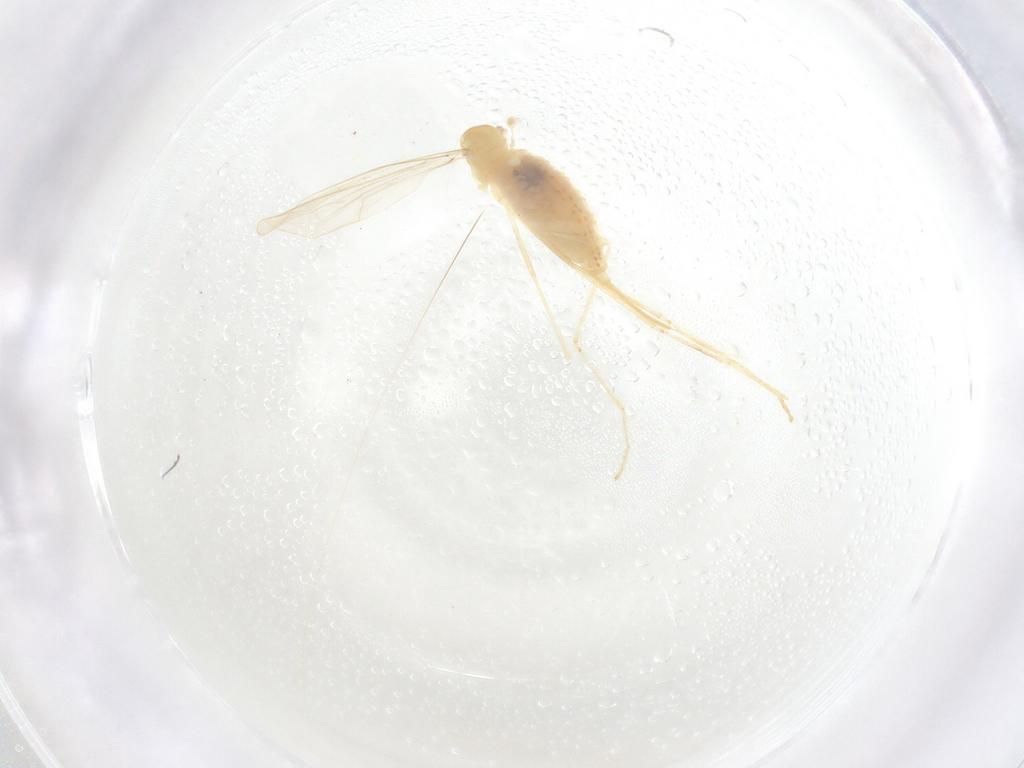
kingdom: Animalia
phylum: Arthropoda
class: Insecta
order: Diptera
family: Cecidomyiidae
